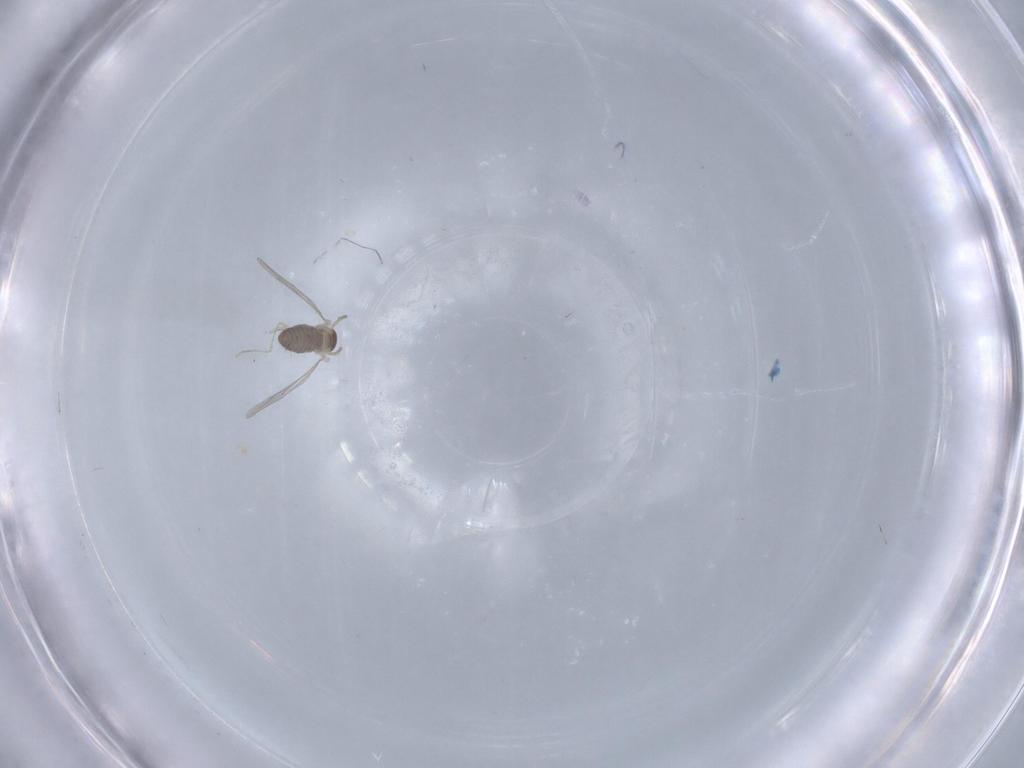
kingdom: Animalia
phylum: Arthropoda
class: Insecta
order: Diptera
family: Cecidomyiidae
